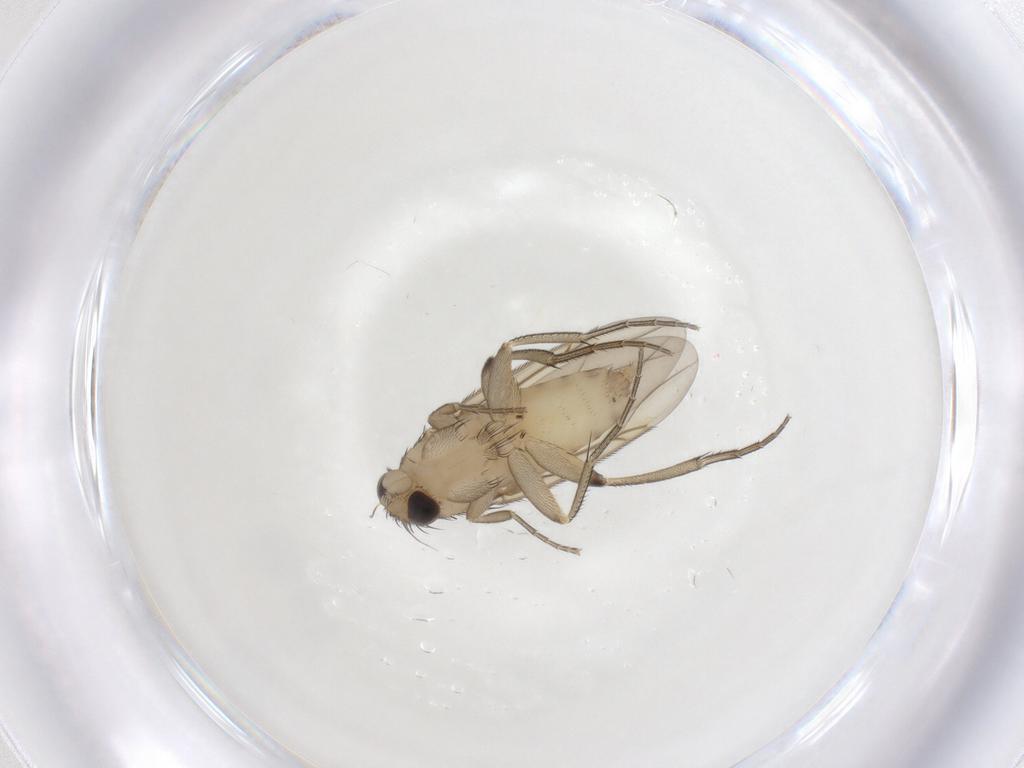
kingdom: Animalia
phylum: Arthropoda
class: Insecta
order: Diptera
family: Phoridae
